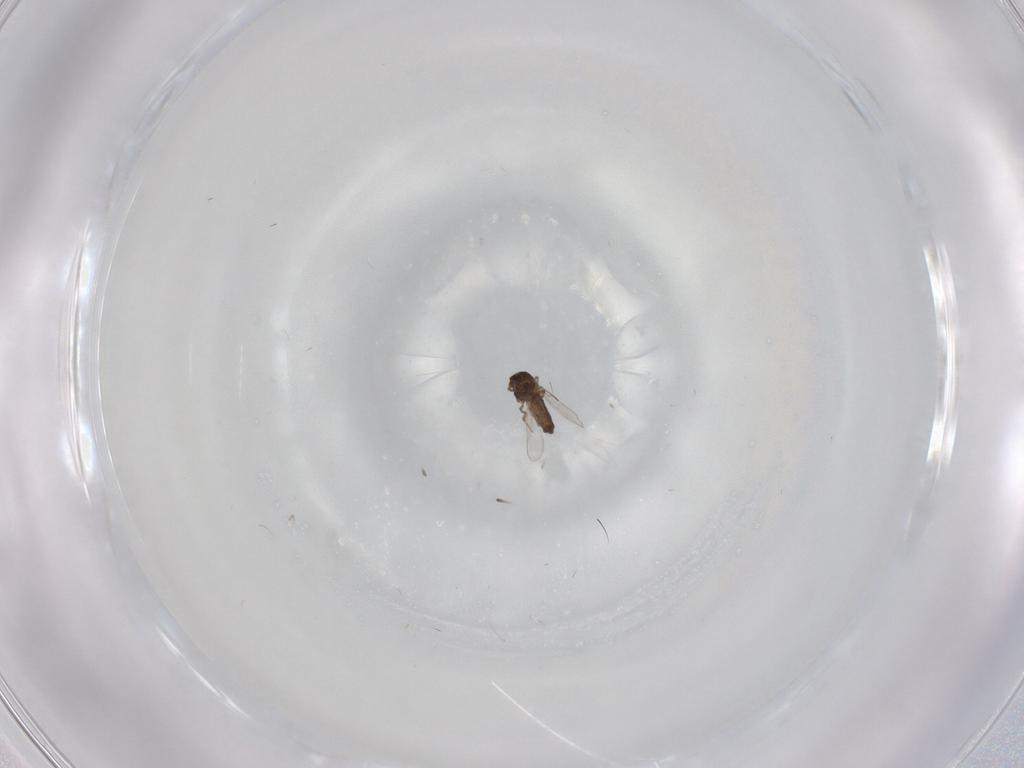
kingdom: Animalia
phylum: Arthropoda
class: Insecta
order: Diptera
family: Ceratopogonidae
